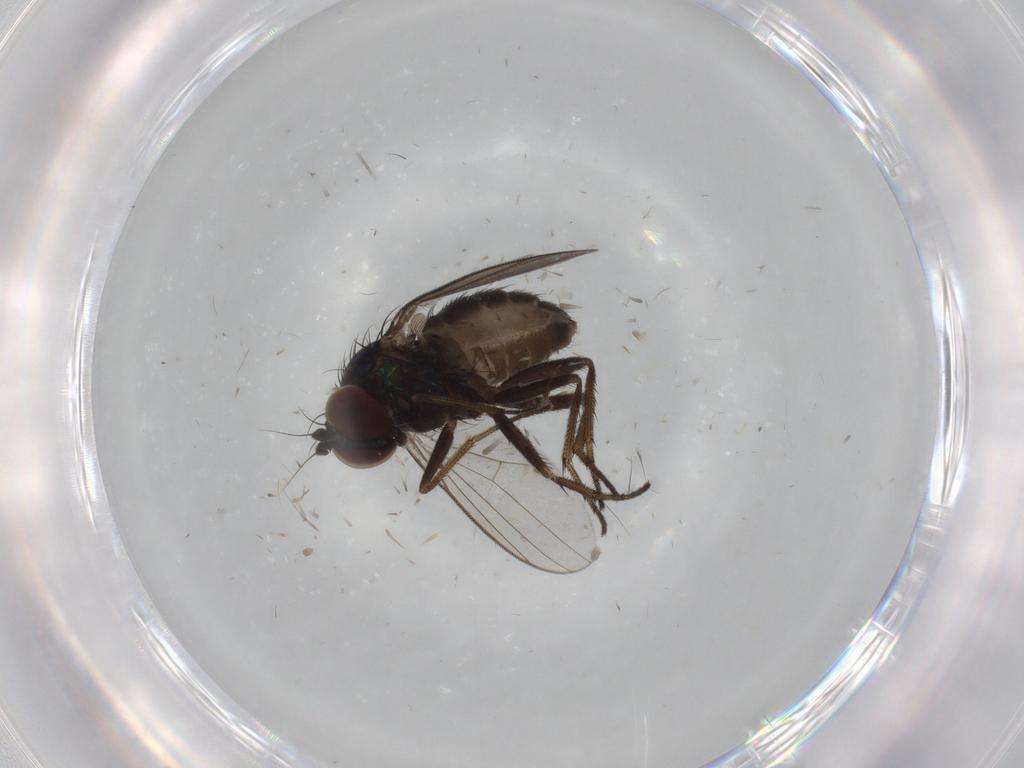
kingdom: Animalia
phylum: Arthropoda
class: Insecta
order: Diptera
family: Dolichopodidae
